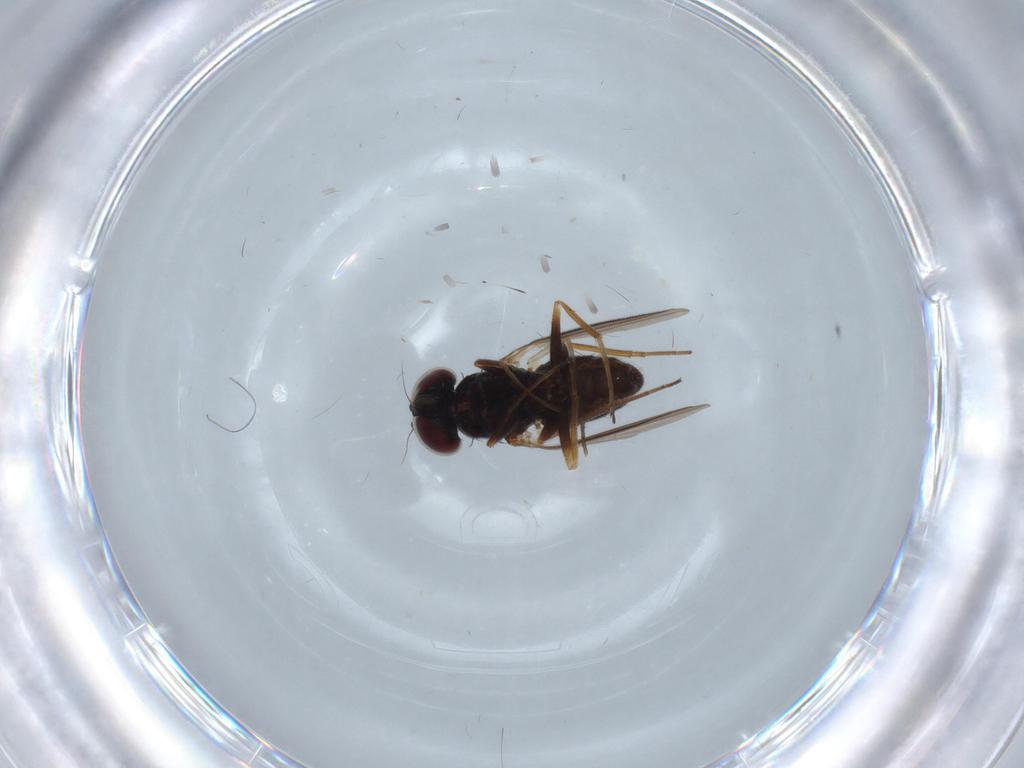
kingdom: Animalia
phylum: Arthropoda
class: Insecta
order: Diptera
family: Dolichopodidae
